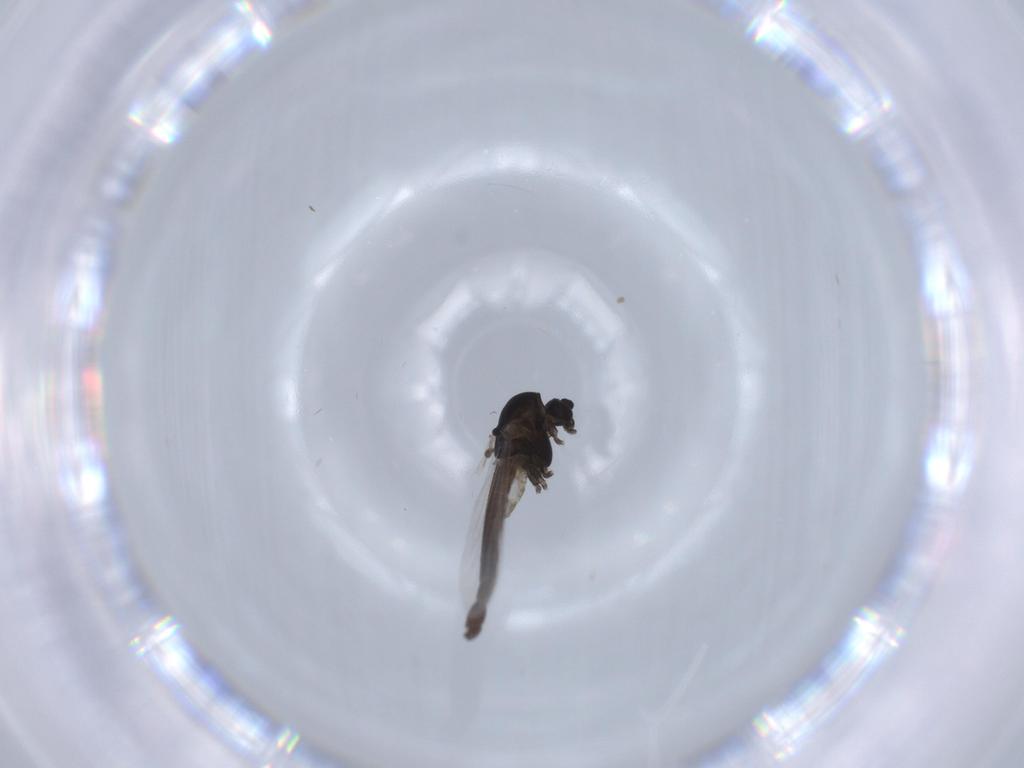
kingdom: Animalia
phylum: Arthropoda
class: Insecta
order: Diptera
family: Chironomidae
